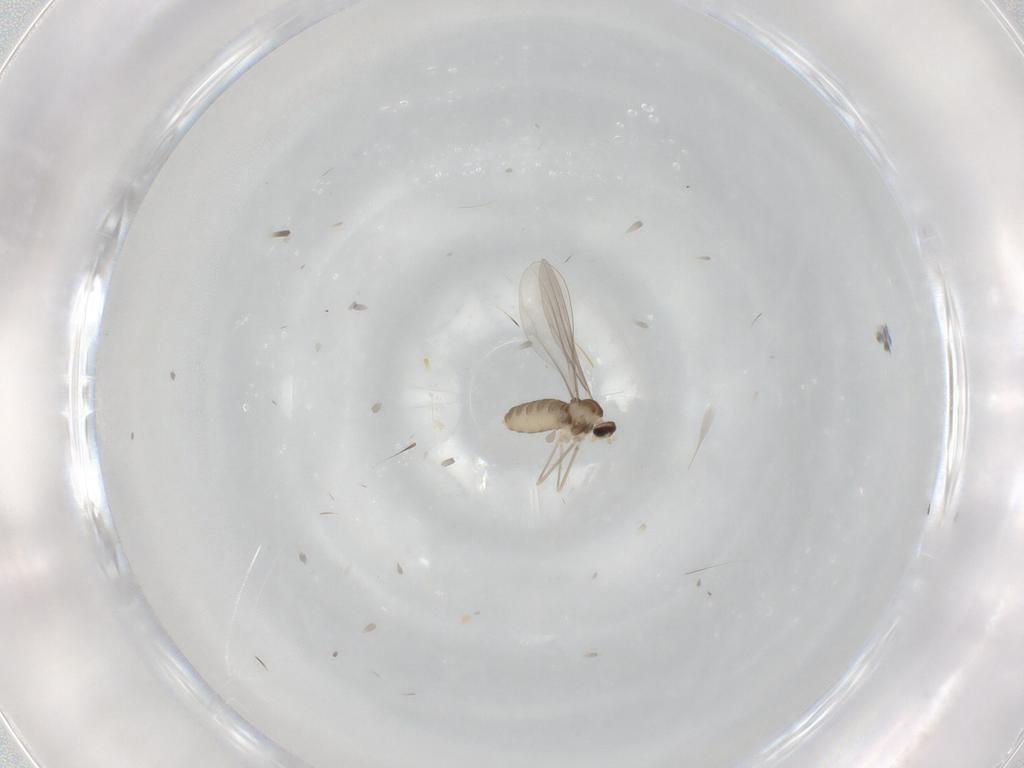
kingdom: Animalia
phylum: Arthropoda
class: Insecta
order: Diptera
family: Cecidomyiidae
